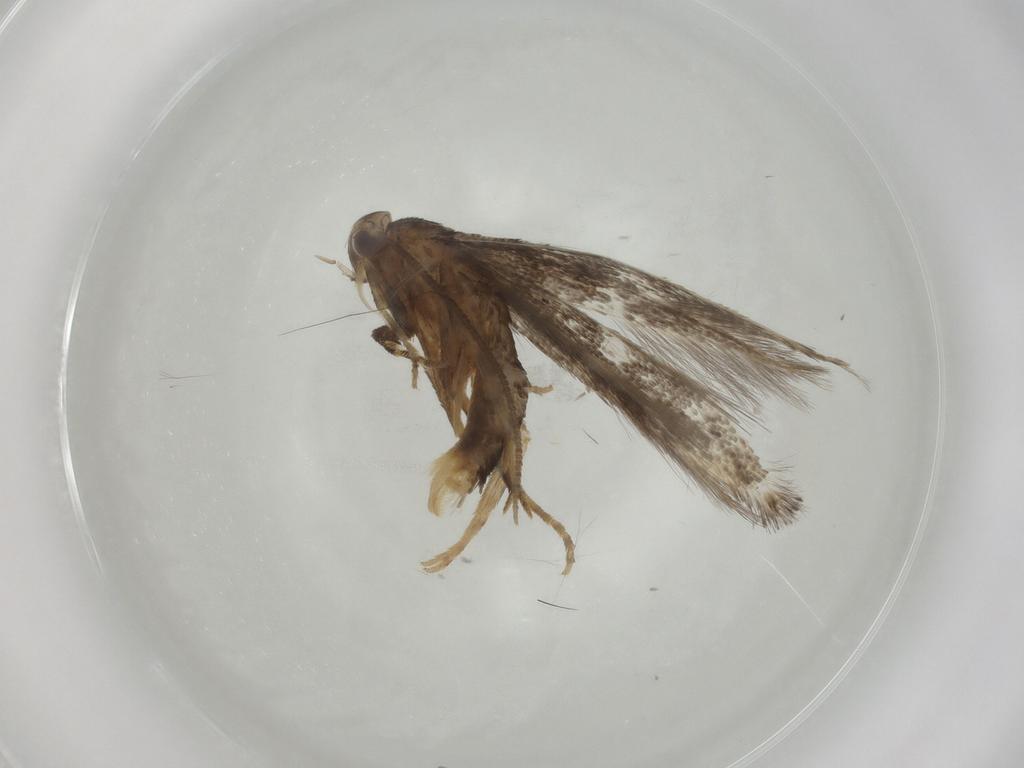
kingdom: Animalia
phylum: Arthropoda
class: Insecta
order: Lepidoptera
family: Elachistidae
